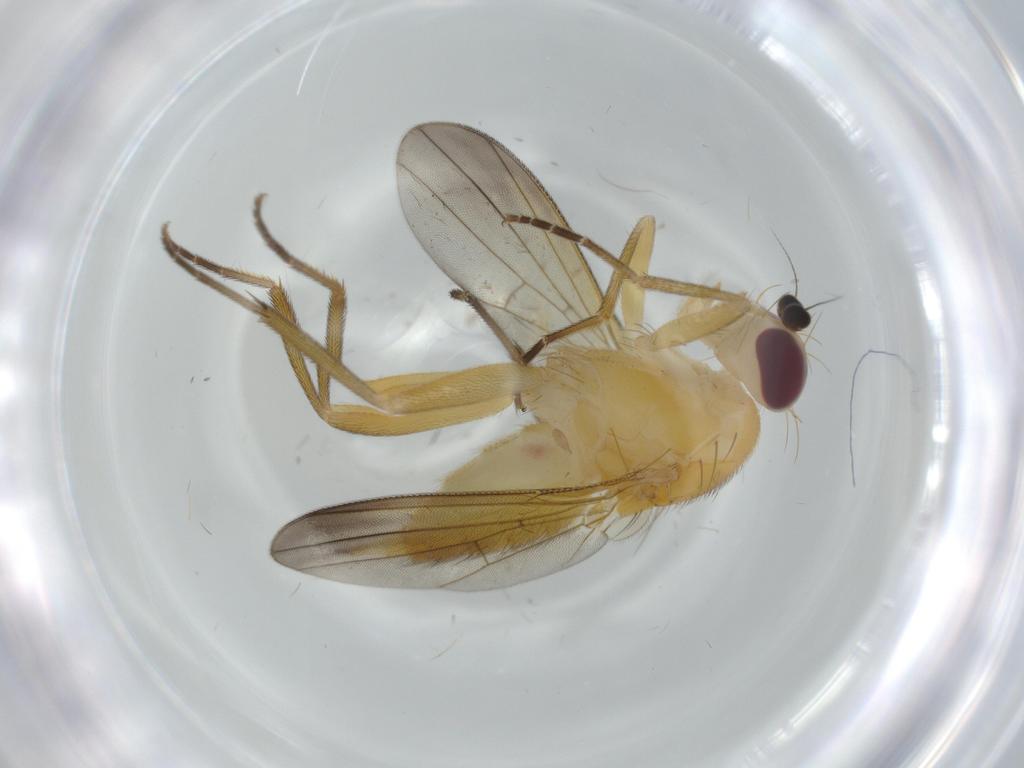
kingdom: Animalia
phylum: Arthropoda
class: Insecta
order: Diptera
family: Clusiidae
